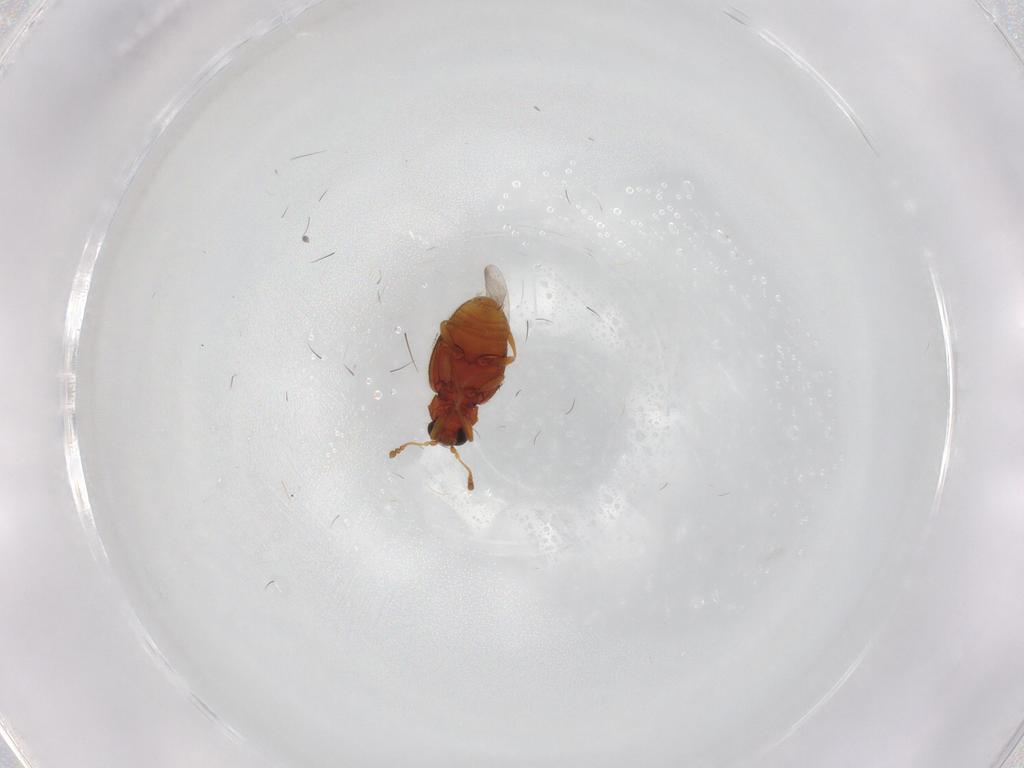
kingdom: Animalia
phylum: Arthropoda
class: Insecta
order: Coleoptera
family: Latridiidae
